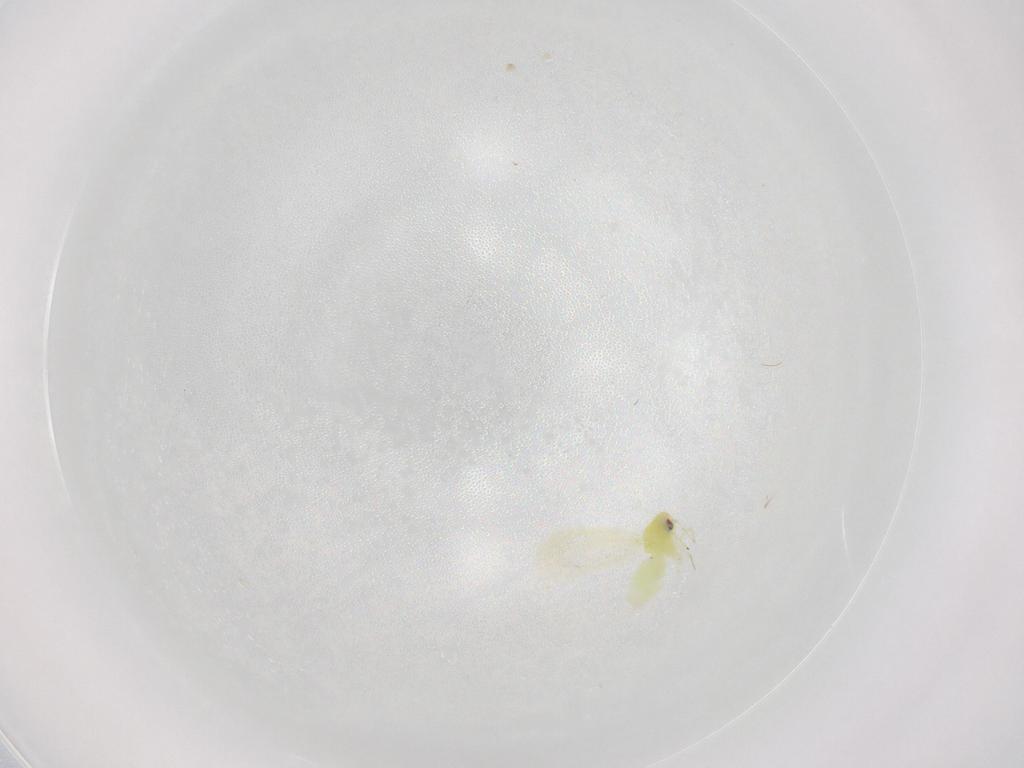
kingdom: Animalia
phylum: Arthropoda
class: Insecta
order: Hemiptera
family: Aleyrodidae
